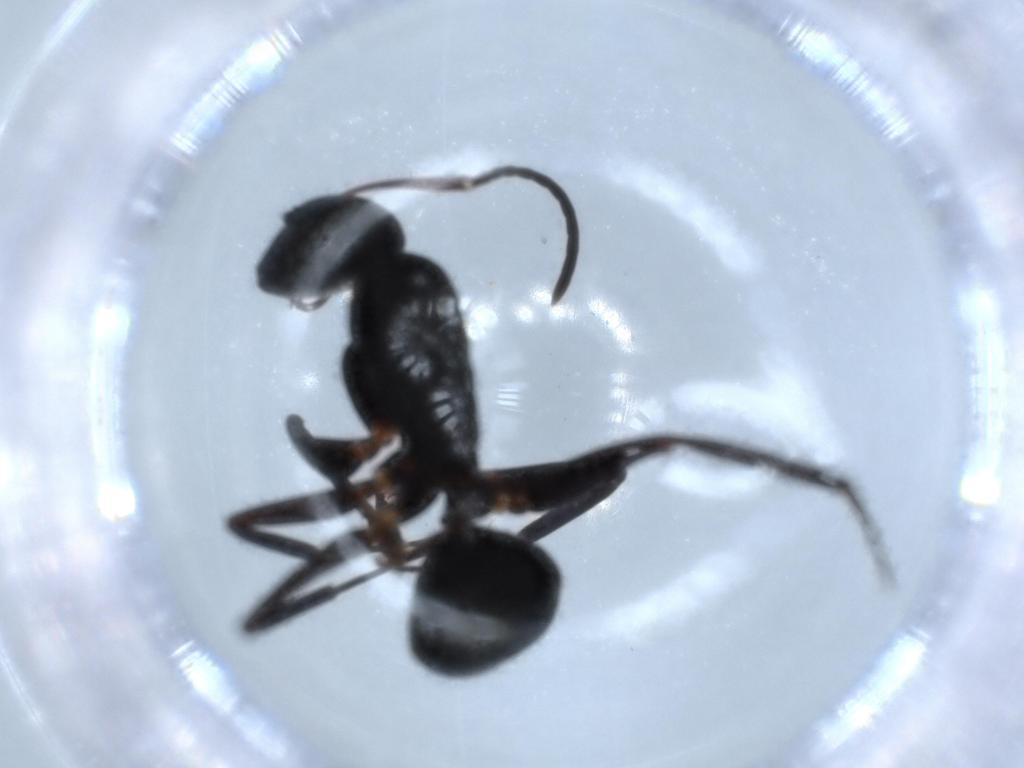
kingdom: Animalia
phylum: Arthropoda
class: Insecta
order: Hymenoptera
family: Formicidae
